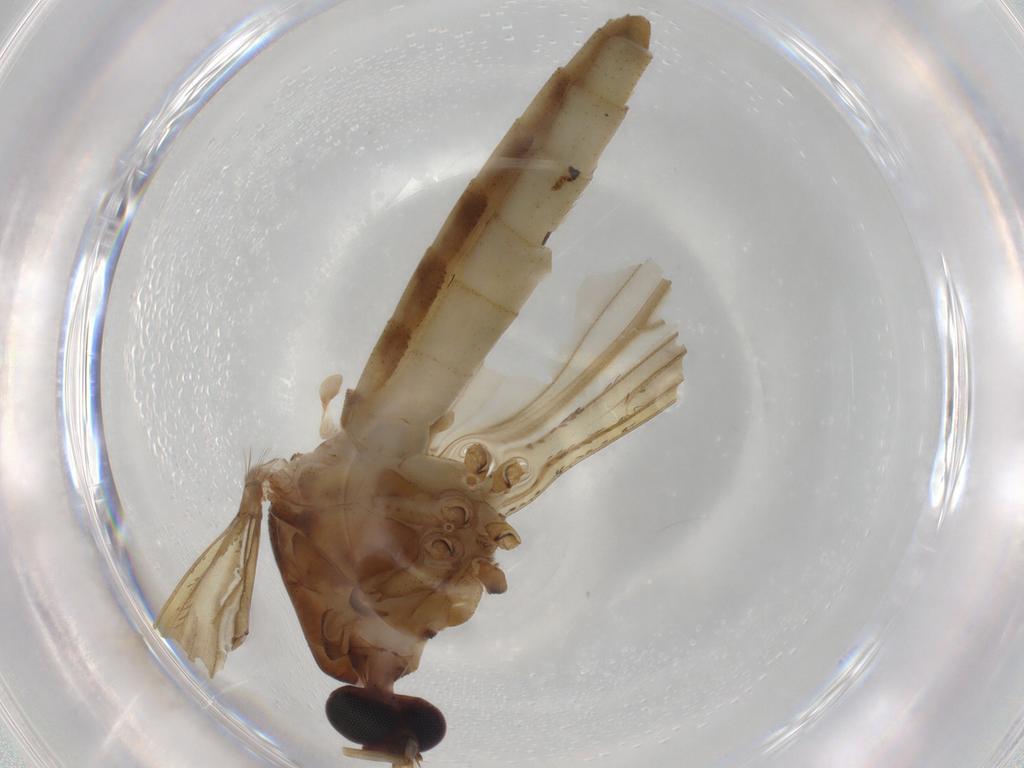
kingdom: Animalia
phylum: Arthropoda
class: Insecta
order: Diptera
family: Culicidae
